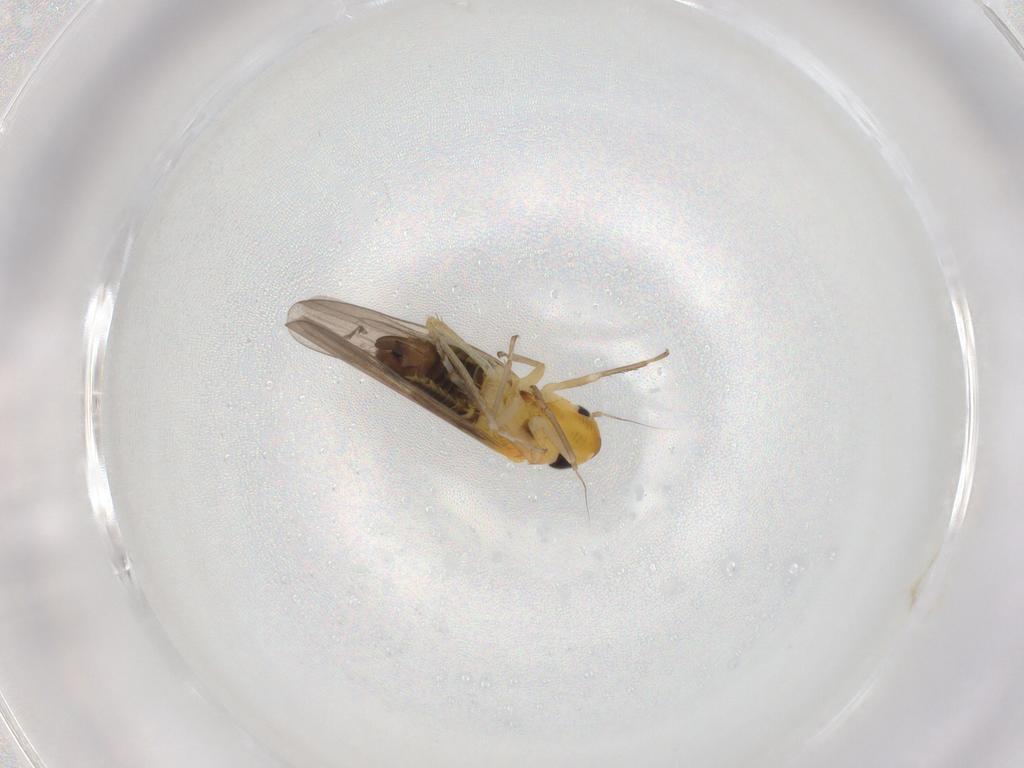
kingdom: Animalia
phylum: Arthropoda
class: Insecta
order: Hemiptera
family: Cicadellidae
